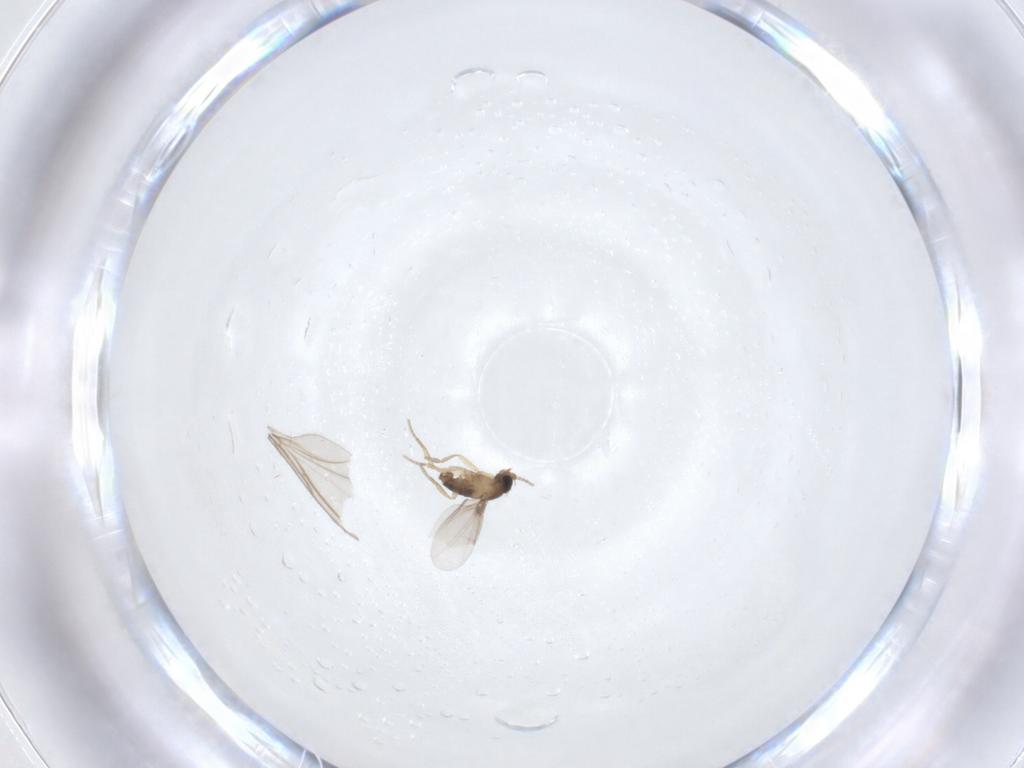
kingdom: Animalia
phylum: Arthropoda
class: Insecta
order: Diptera
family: Phoridae
